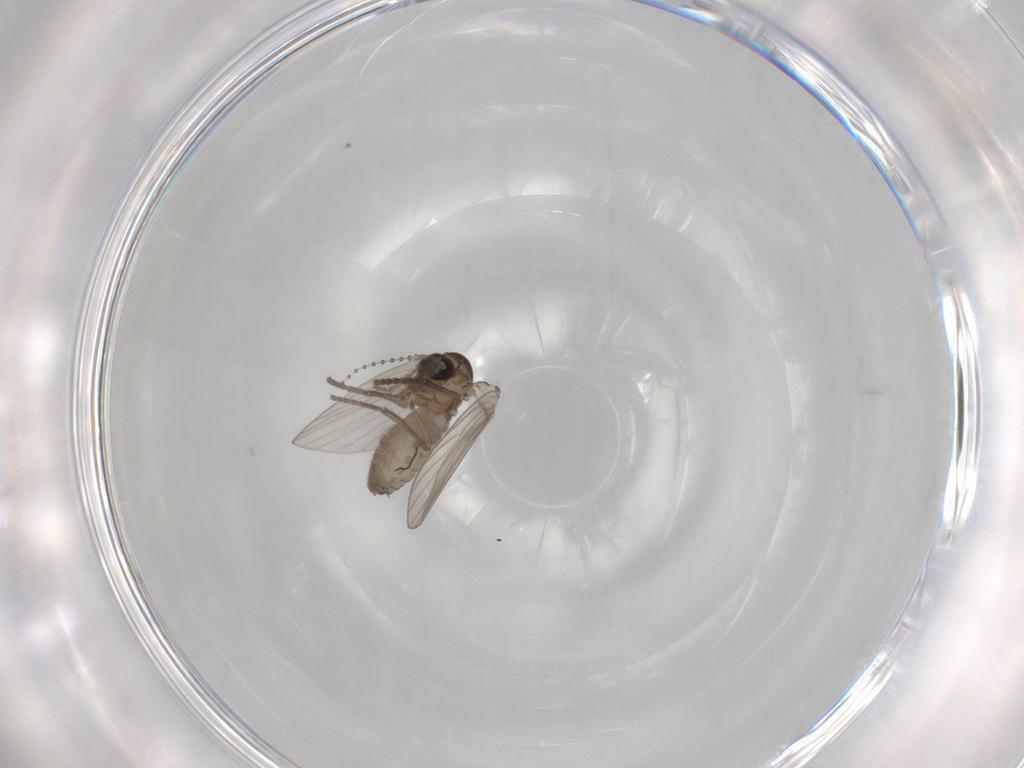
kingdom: Animalia
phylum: Arthropoda
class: Insecta
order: Diptera
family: Psychodidae
